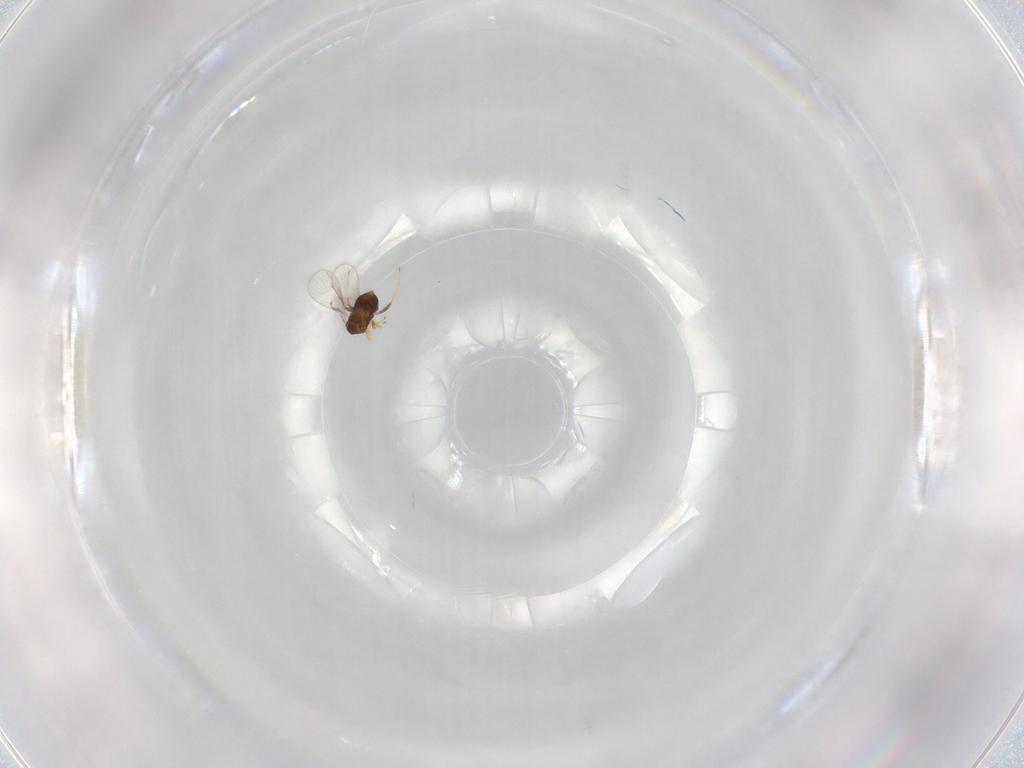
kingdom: Animalia
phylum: Arthropoda
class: Insecta
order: Hymenoptera
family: Trichogrammatidae
